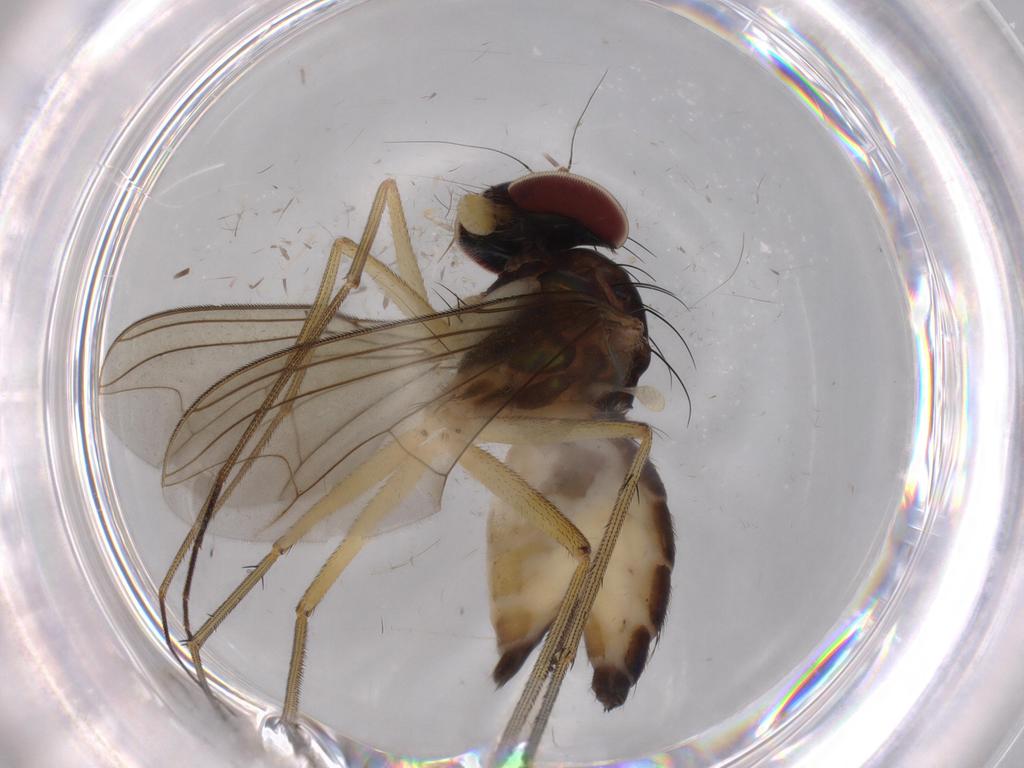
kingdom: Animalia
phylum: Arthropoda
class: Insecta
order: Diptera
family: Dolichopodidae
